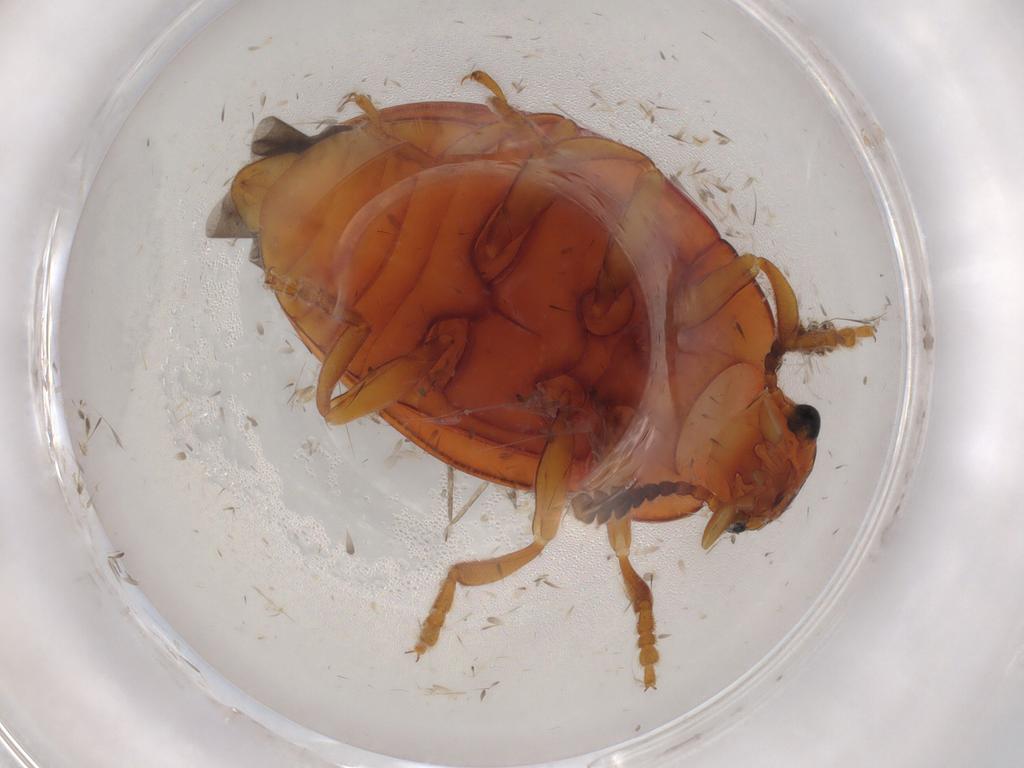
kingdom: Animalia
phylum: Arthropoda
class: Insecta
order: Coleoptera
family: Erotylidae
